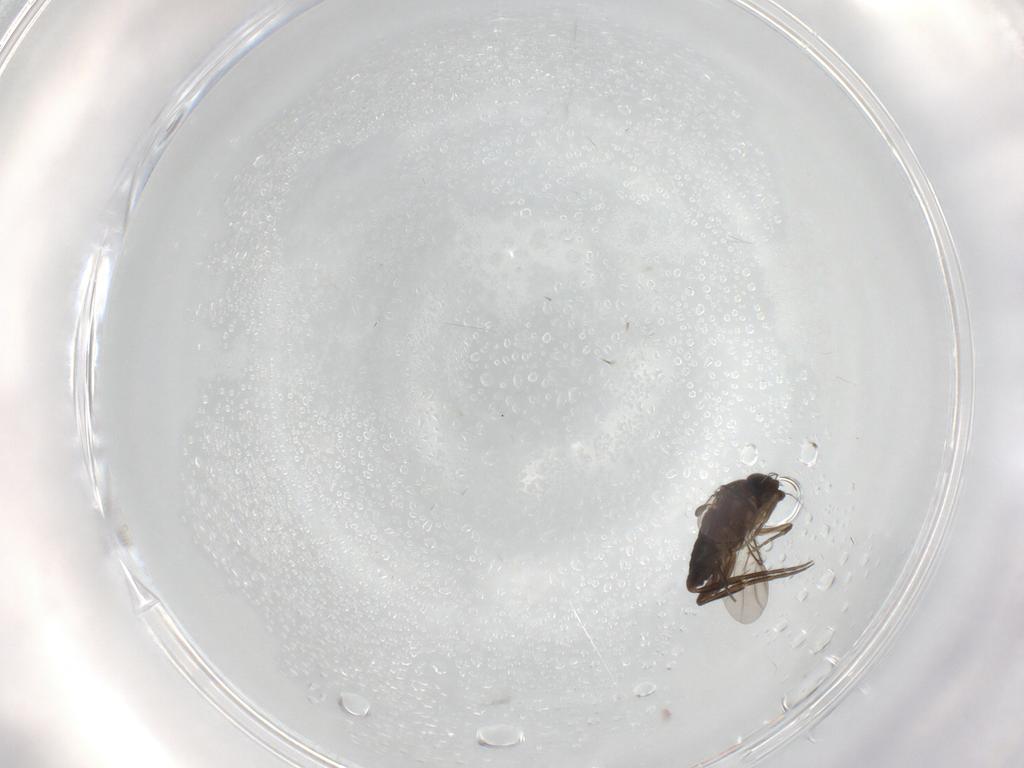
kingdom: Animalia
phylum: Arthropoda
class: Insecta
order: Diptera
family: Phoridae
